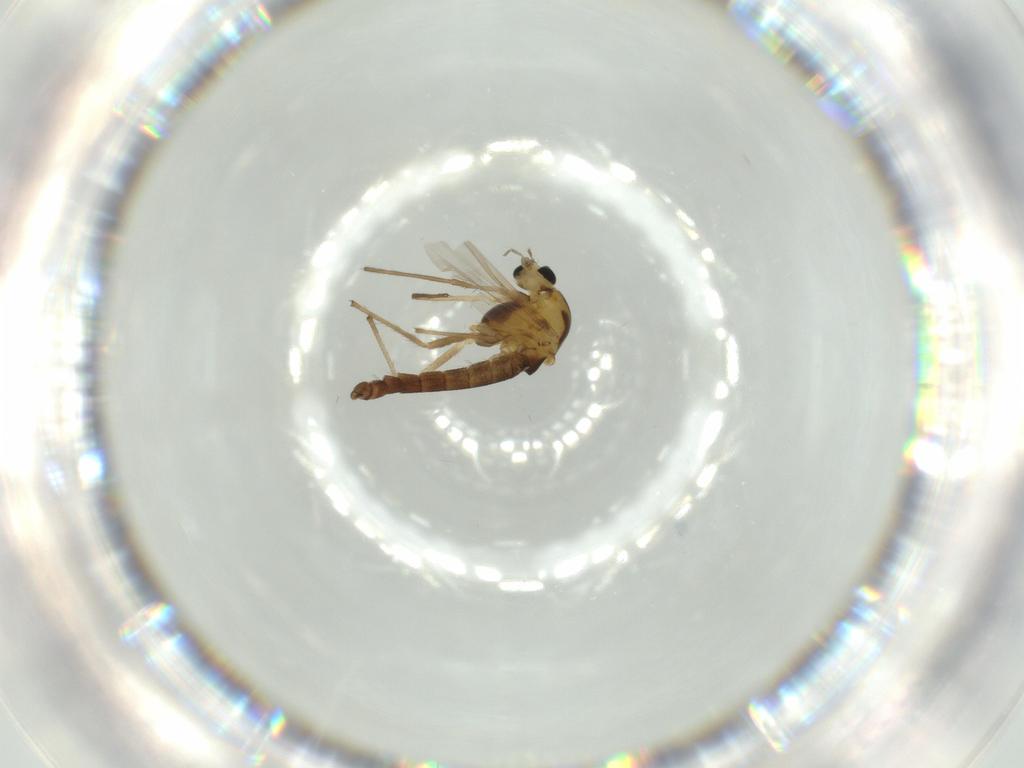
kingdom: Animalia
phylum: Arthropoda
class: Insecta
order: Diptera
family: Chironomidae
